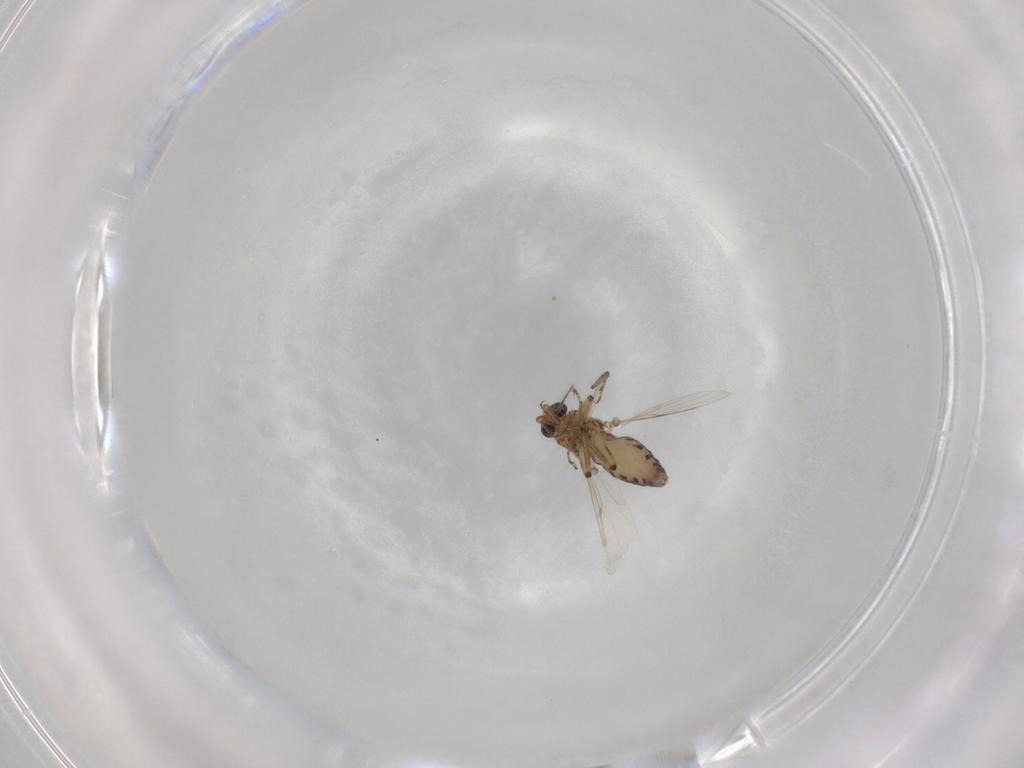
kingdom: Animalia
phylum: Arthropoda
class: Insecta
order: Diptera
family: Ceratopogonidae
